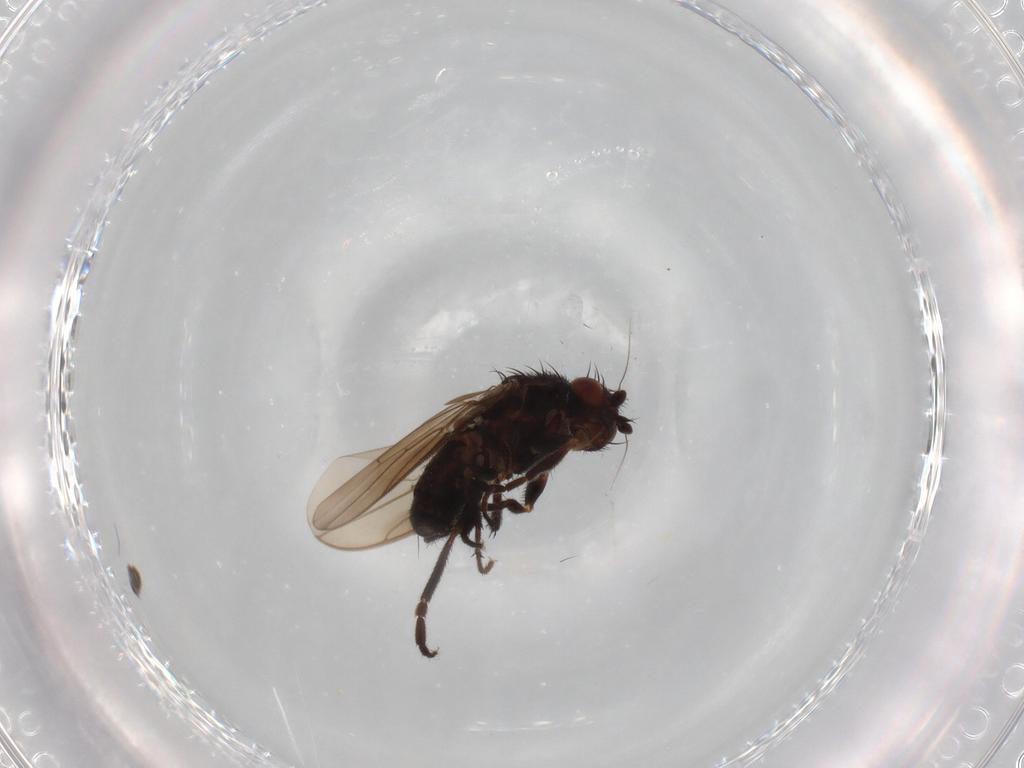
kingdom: Animalia
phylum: Arthropoda
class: Insecta
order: Diptera
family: Sphaeroceridae
